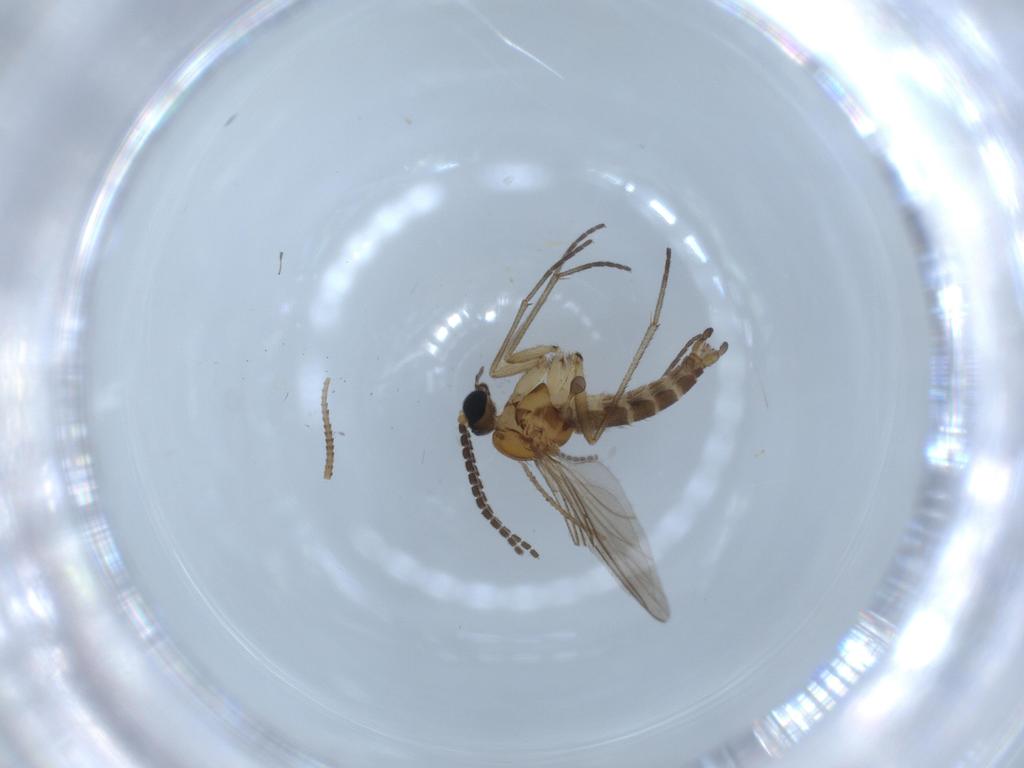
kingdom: Animalia
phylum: Arthropoda
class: Insecta
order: Diptera
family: Sciaridae
